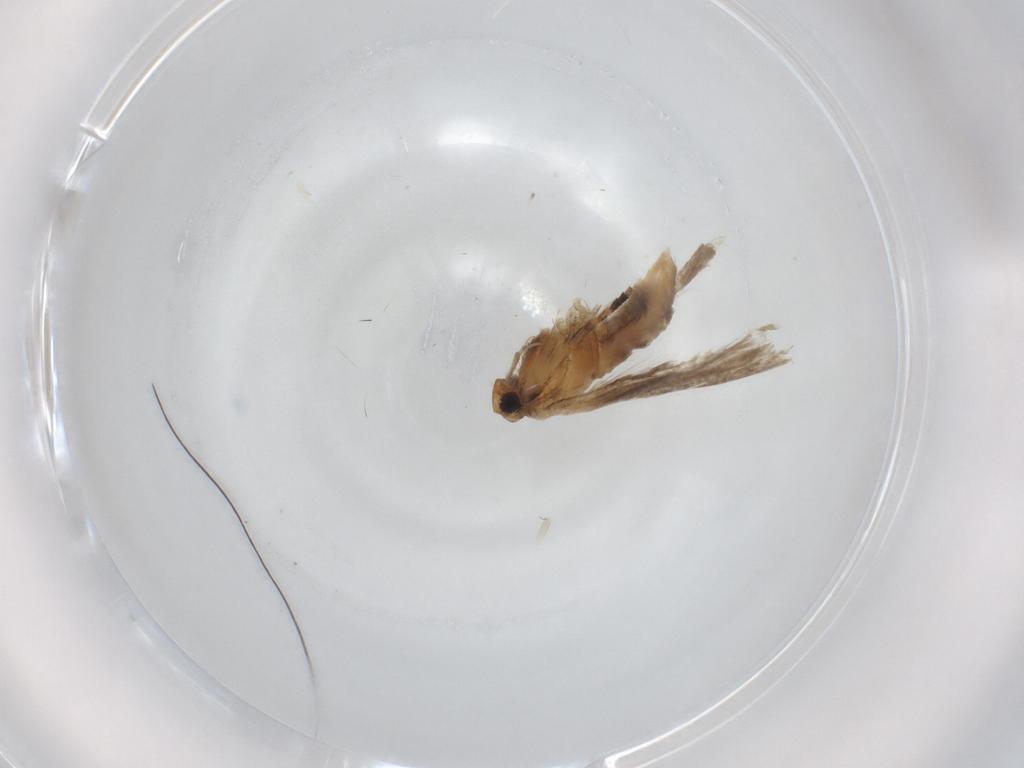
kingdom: Animalia
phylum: Arthropoda
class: Insecta
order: Lepidoptera
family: Gelechiidae
